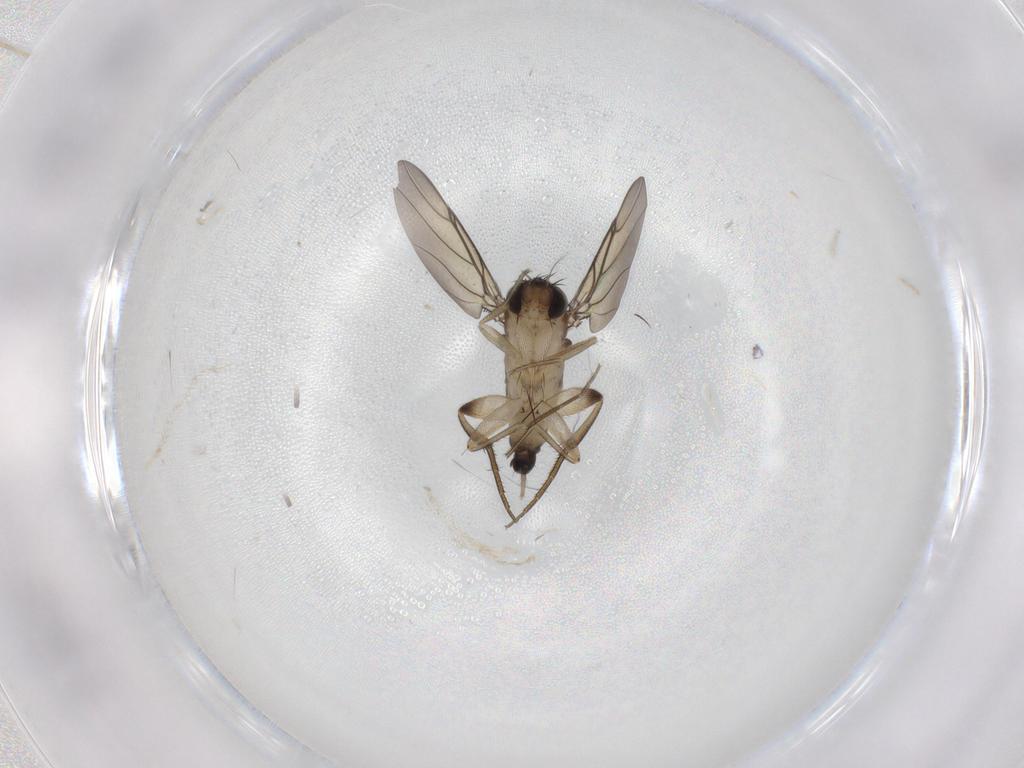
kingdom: Animalia
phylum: Arthropoda
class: Insecta
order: Diptera
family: Phoridae
